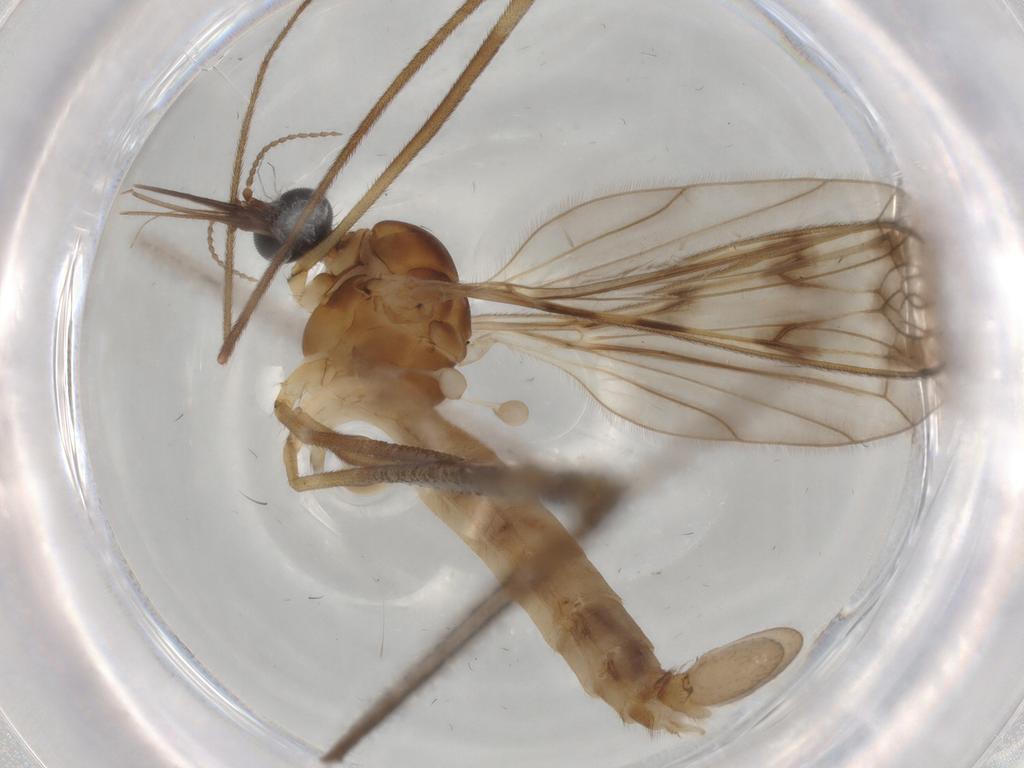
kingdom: Animalia
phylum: Arthropoda
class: Insecta
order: Diptera
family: Ceratopogonidae
